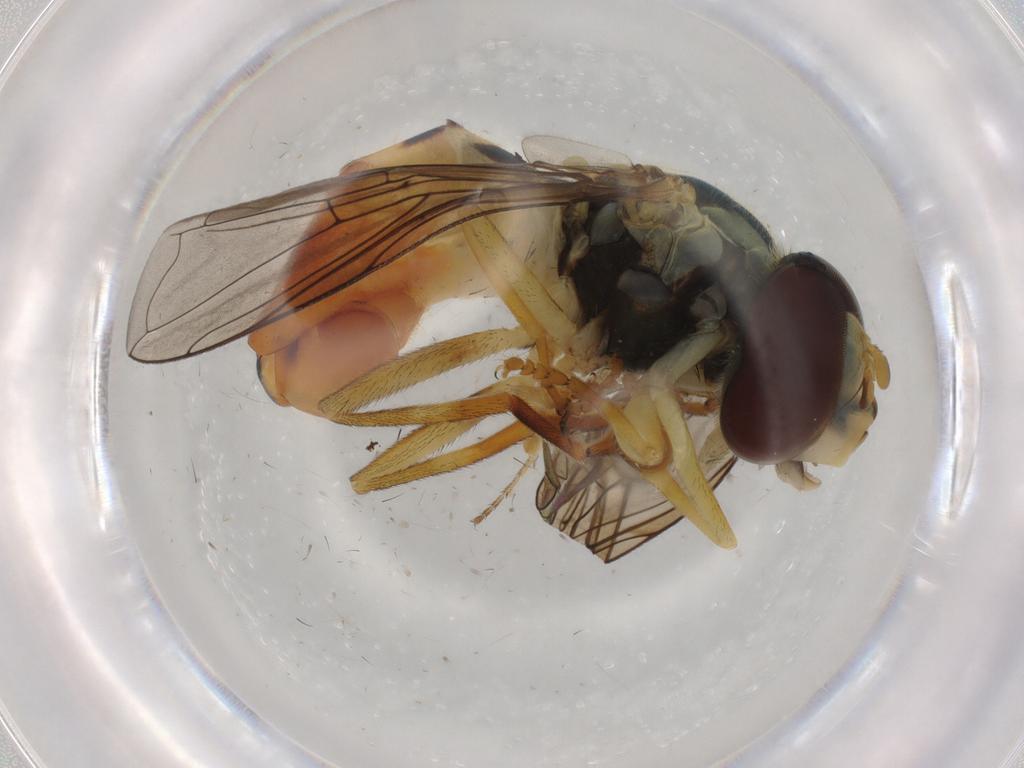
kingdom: Animalia
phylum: Arthropoda
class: Insecta
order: Diptera
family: Syrphidae
